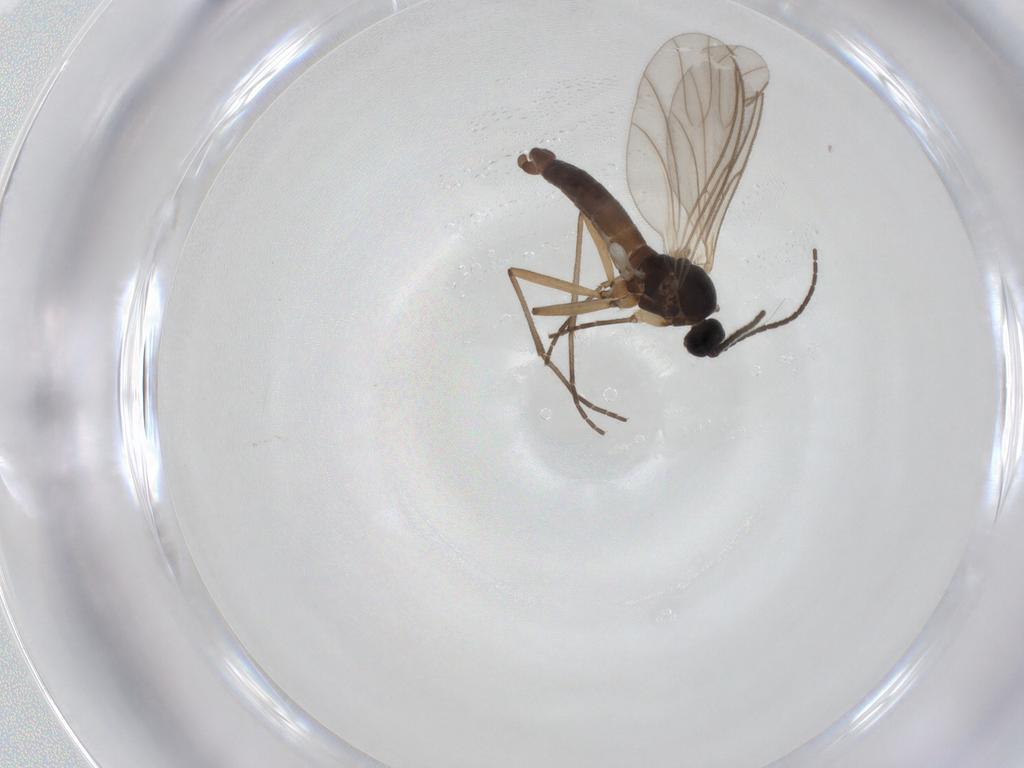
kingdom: Animalia
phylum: Arthropoda
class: Insecta
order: Diptera
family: Sciaridae
